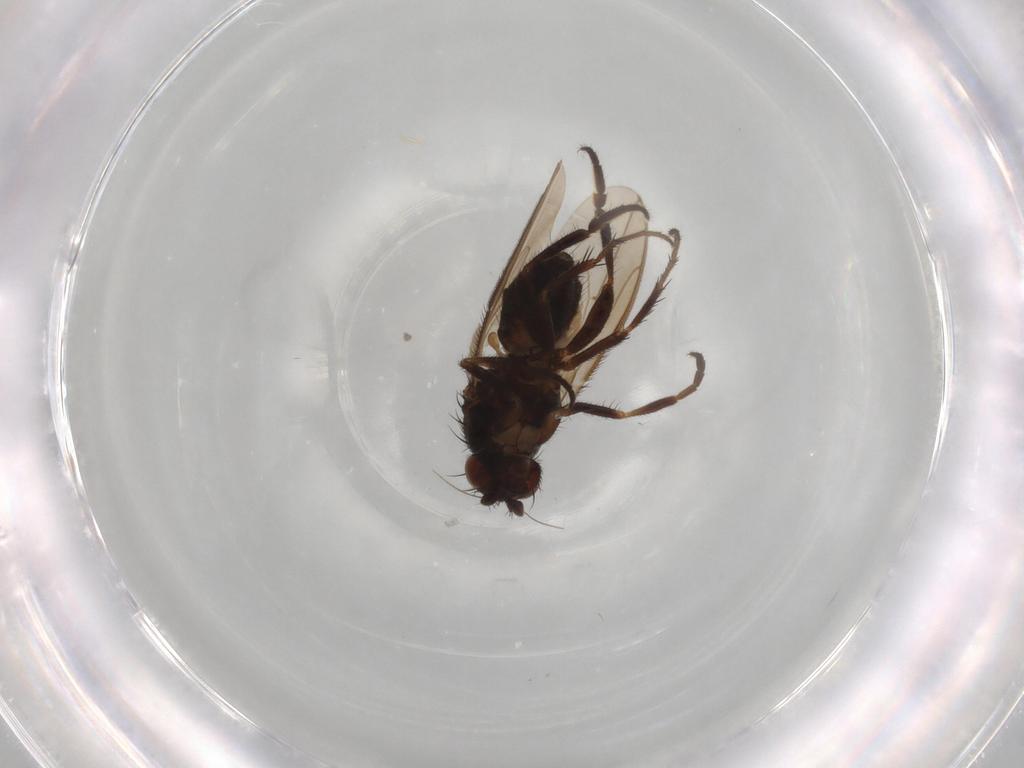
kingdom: Animalia
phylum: Arthropoda
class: Insecta
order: Diptera
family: Sphaeroceridae
